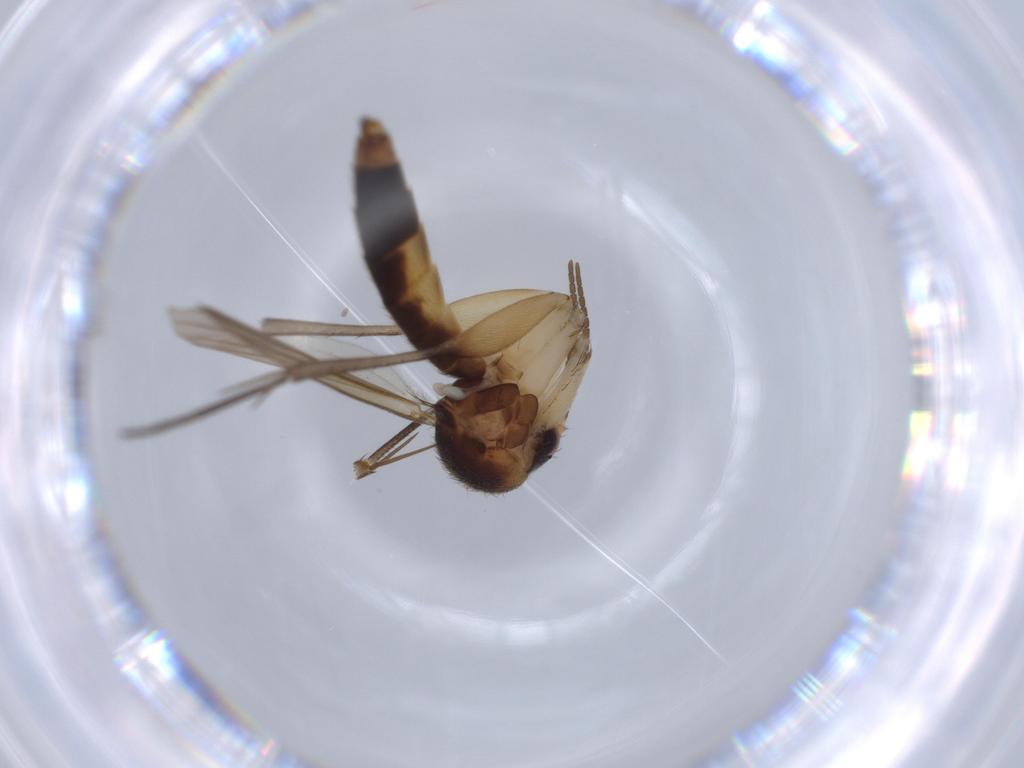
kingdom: Animalia
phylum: Arthropoda
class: Insecta
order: Diptera
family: Mycetophilidae
